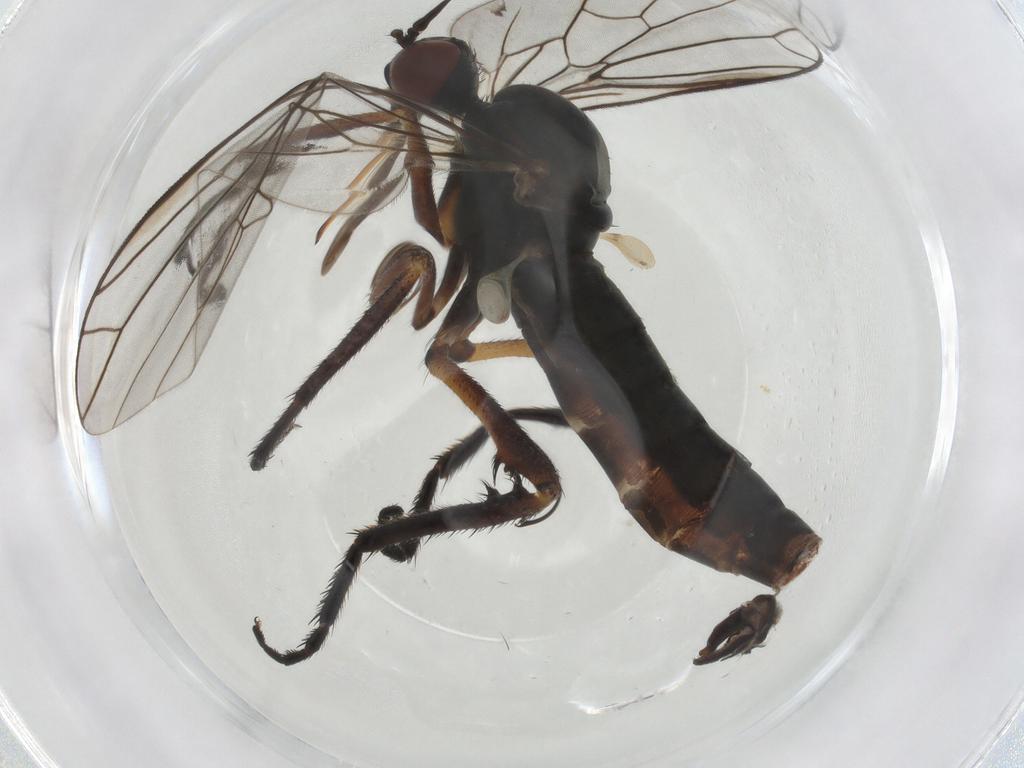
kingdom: Animalia
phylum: Arthropoda
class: Insecta
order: Diptera
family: Empididae
